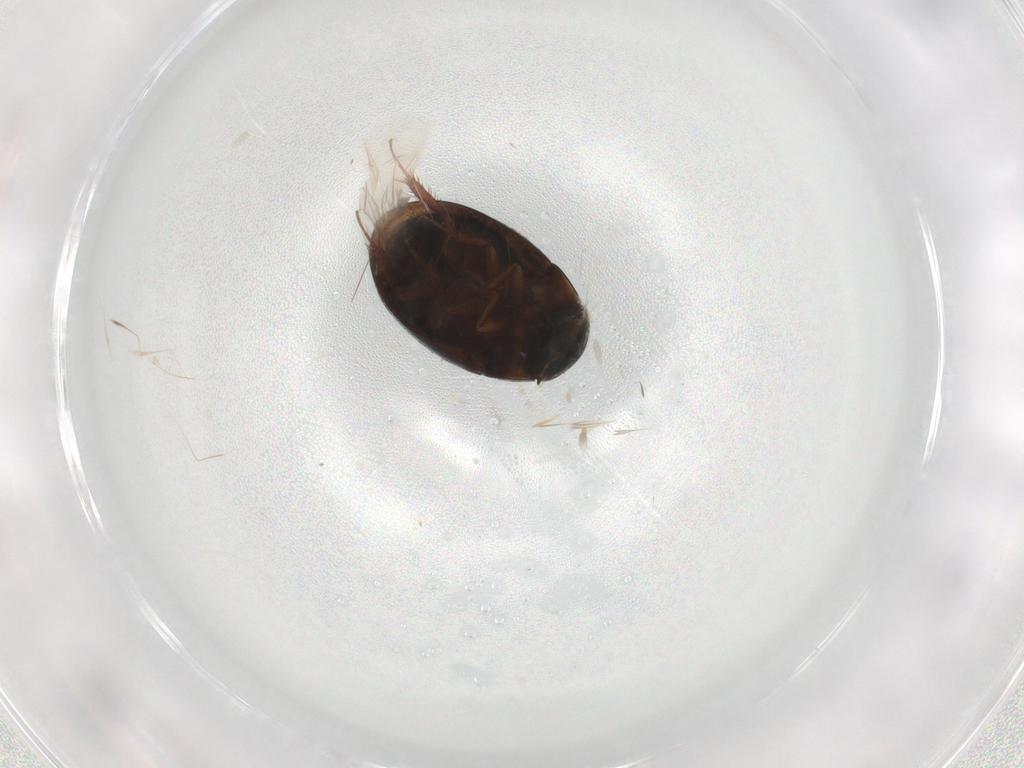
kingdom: Animalia
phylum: Arthropoda
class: Insecta
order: Coleoptera
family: Hydrophilidae
